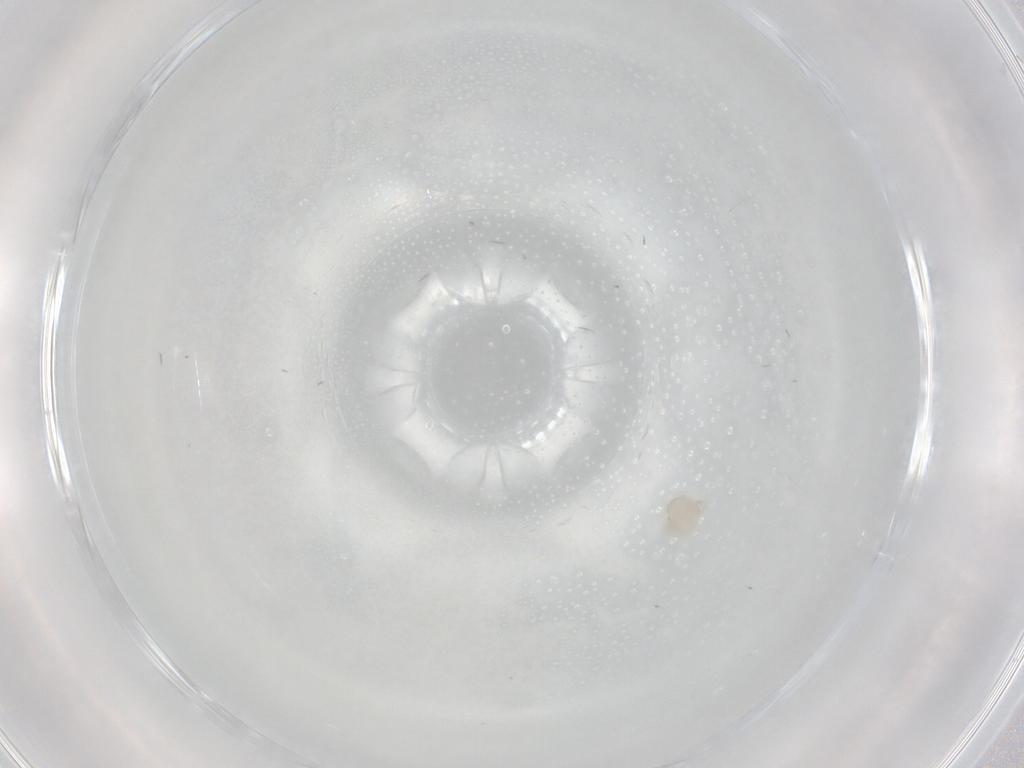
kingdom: Animalia
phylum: Arthropoda
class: Arachnida
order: Trombidiformes
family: Arrenuridae
